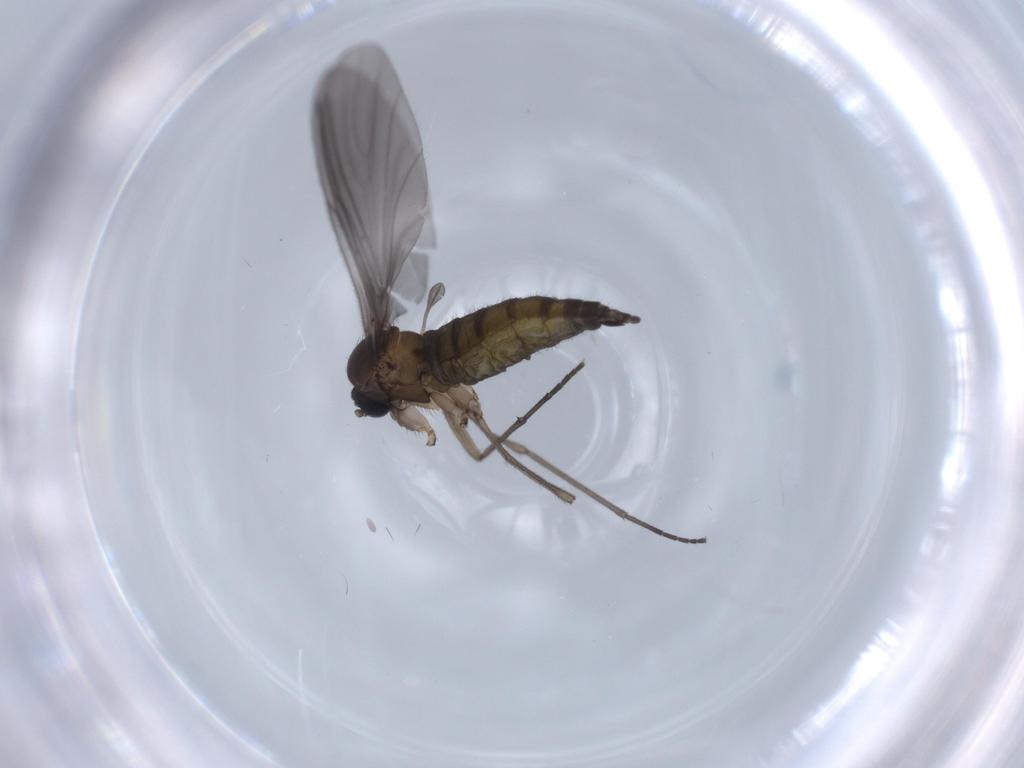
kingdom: Animalia
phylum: Arthropoda
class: Insecta
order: Diptera
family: Sciaridae
